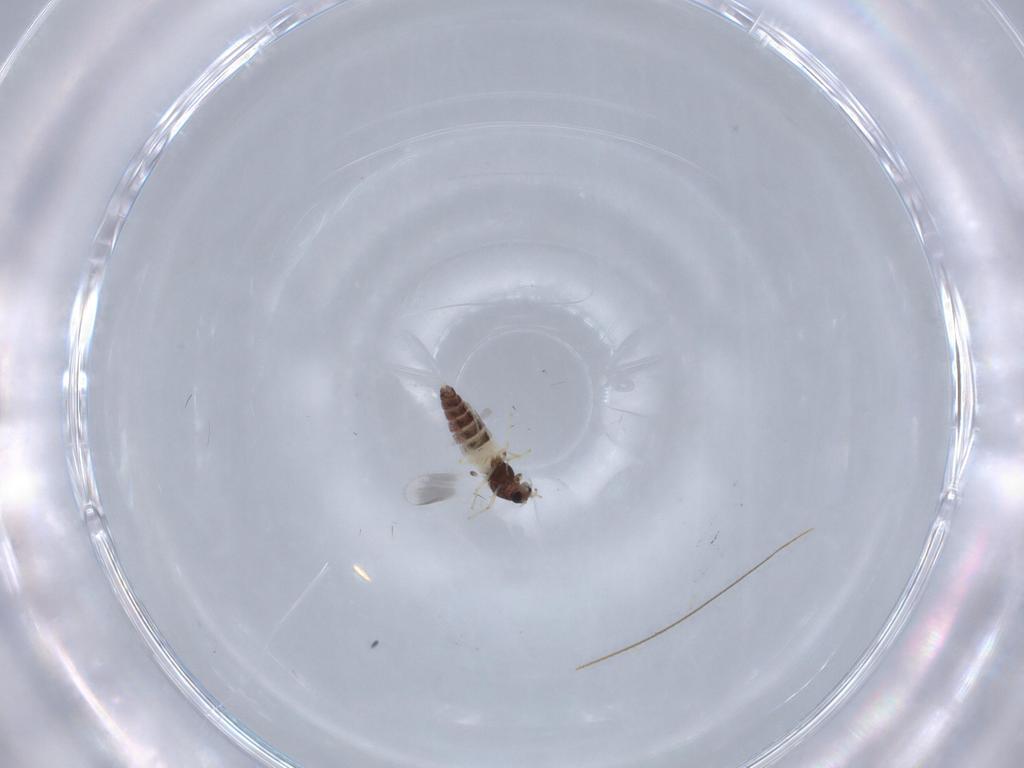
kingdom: Animalia
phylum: Arthropoda
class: Insecta
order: Diptera
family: Chironomidae
